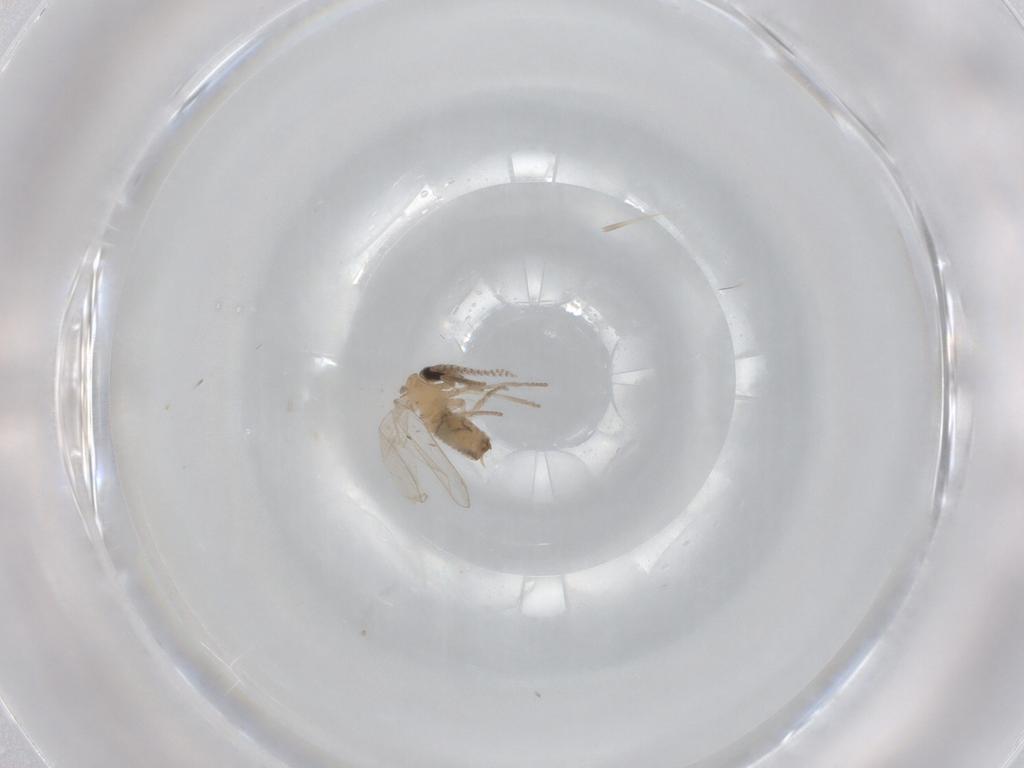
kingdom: Animalia
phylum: Arthropoda
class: Insecta
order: Diptera
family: Psychodidae
